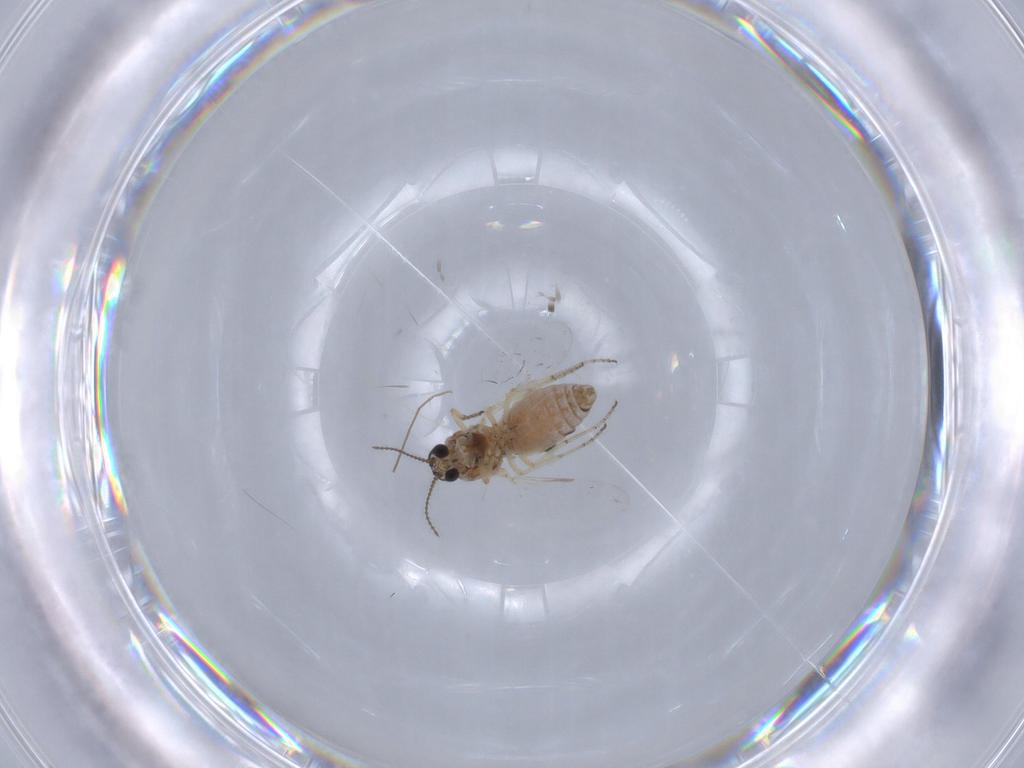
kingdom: Animalia
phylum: Arthropoda
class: Insecta
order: Diptera
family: Ceratopogonidae
